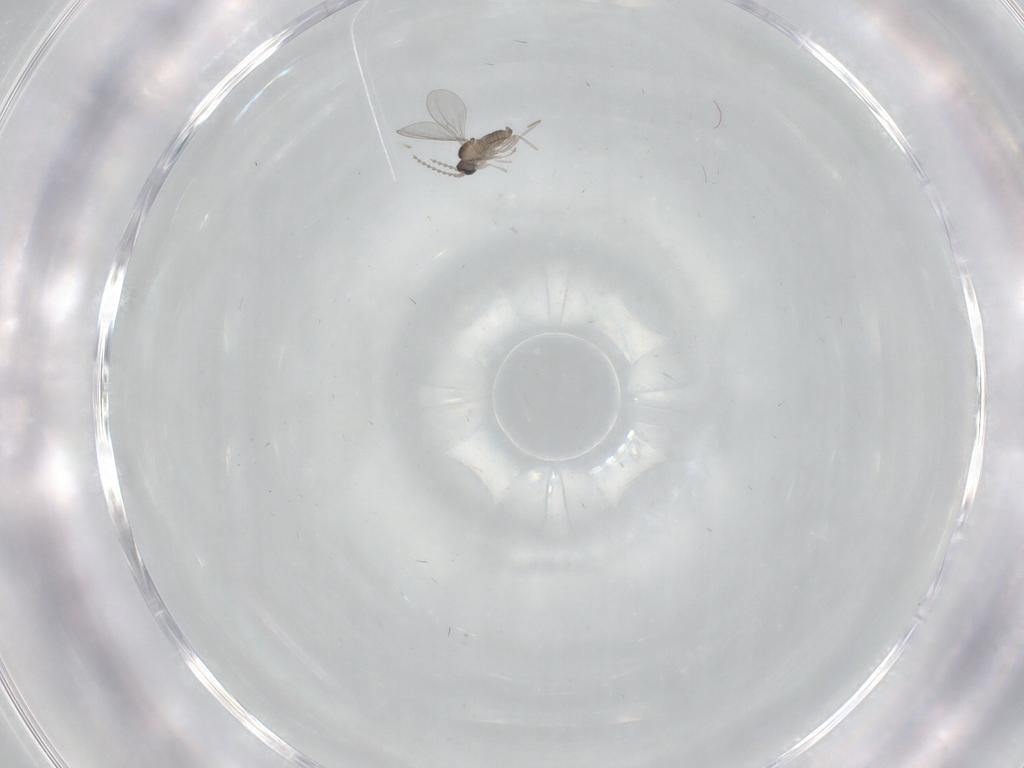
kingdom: Animalia
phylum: Arthropoda
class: Insecta
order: Diptera
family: Cecidomyiidae
